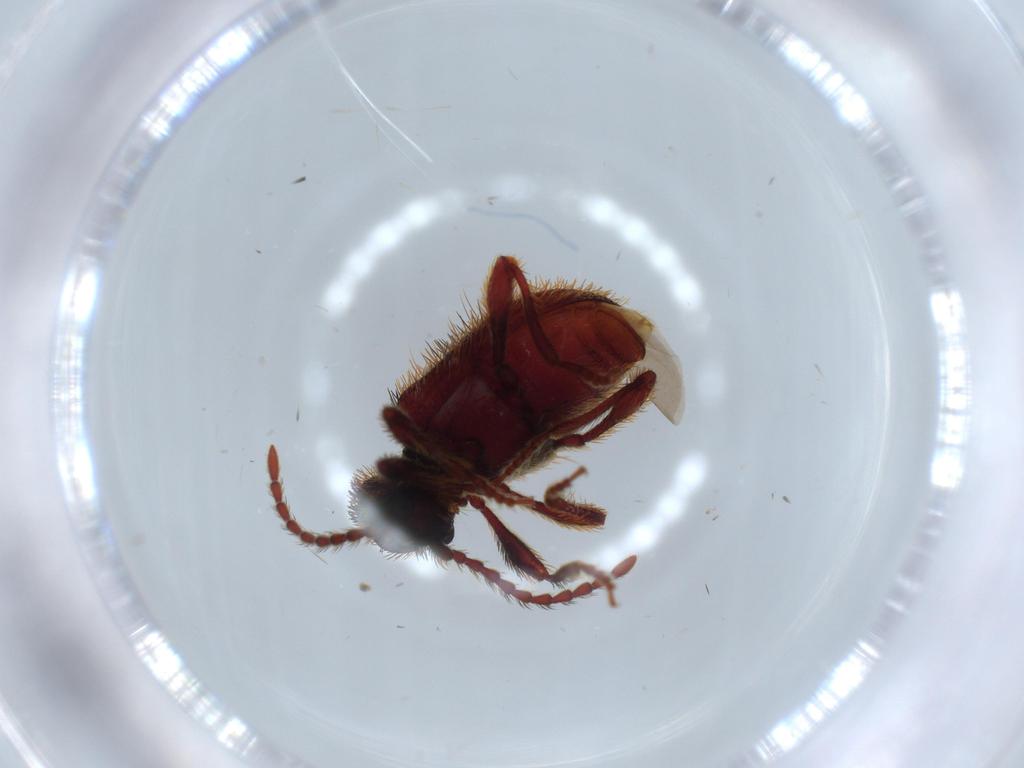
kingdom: Animalia
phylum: Arthropoda
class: Insecta
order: Coleoptera
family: Ptinidae
